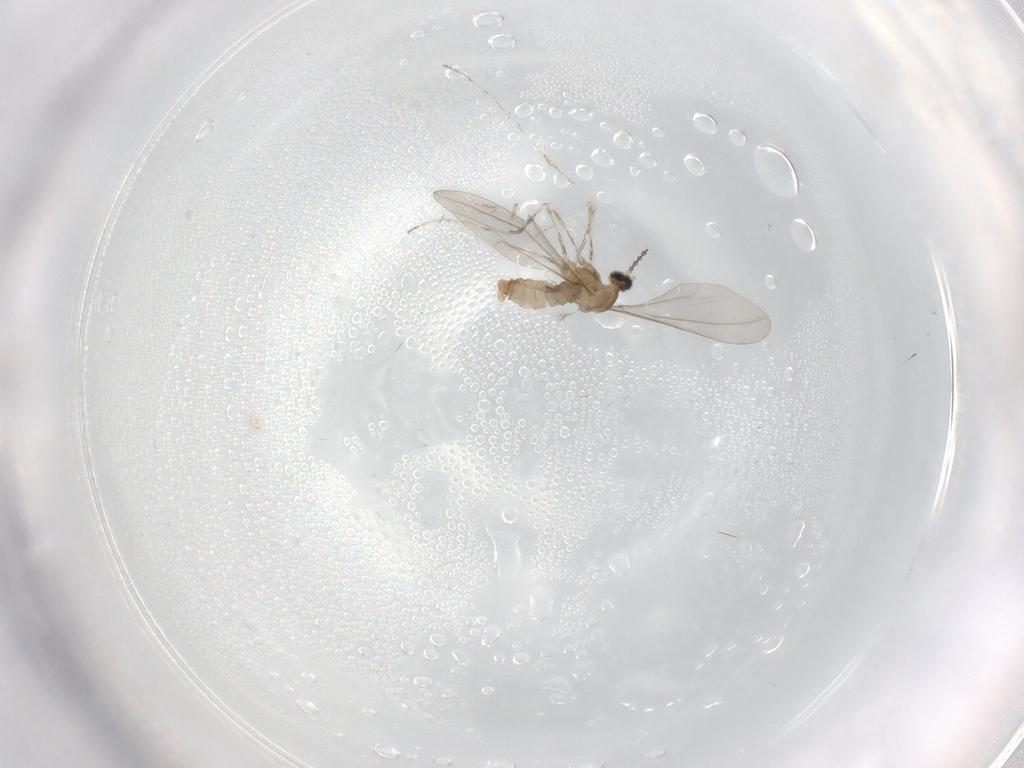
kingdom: Animalia
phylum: Arthropoda
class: Insecta
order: Diptera
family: Cecidomyiidae
